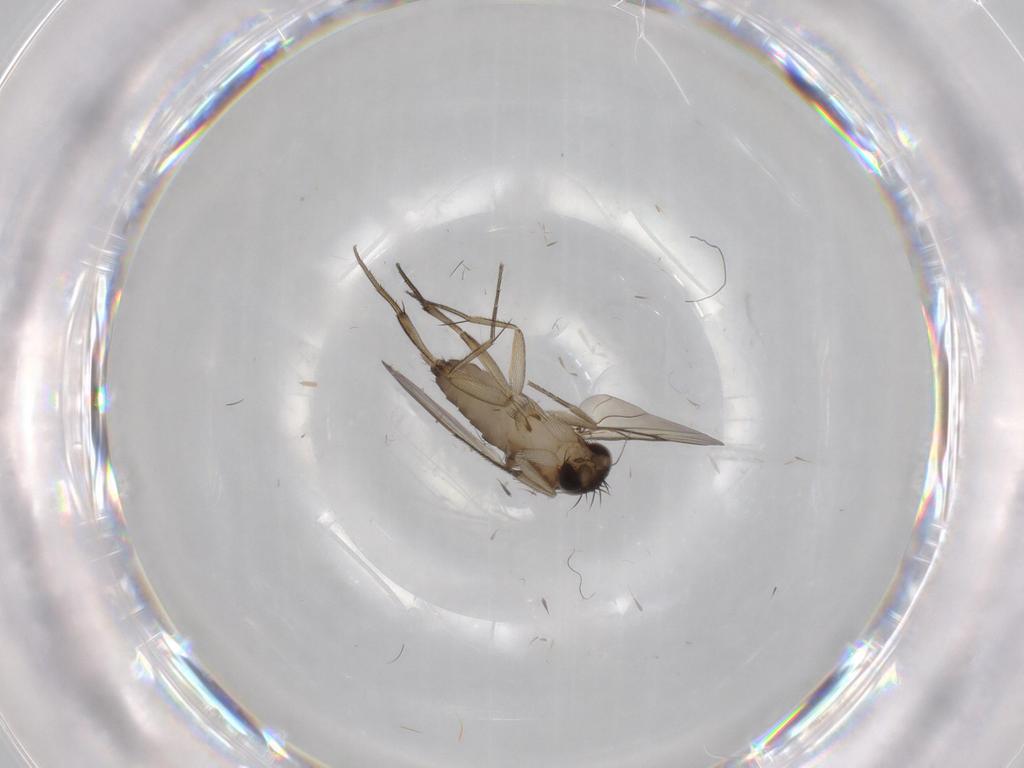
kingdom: Animalia
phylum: Arthropoda
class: Insecta
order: Diptera
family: Phoridae
